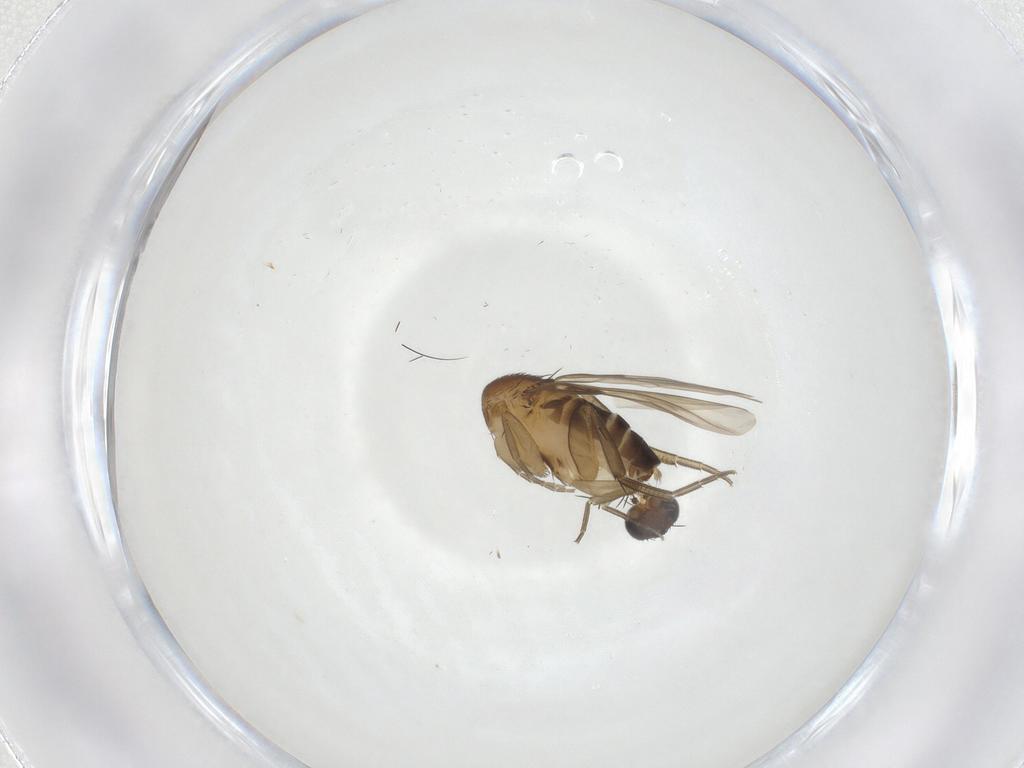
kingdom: Animalia
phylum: Arthropoda
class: Insecta
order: Diptera
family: Phoridae
